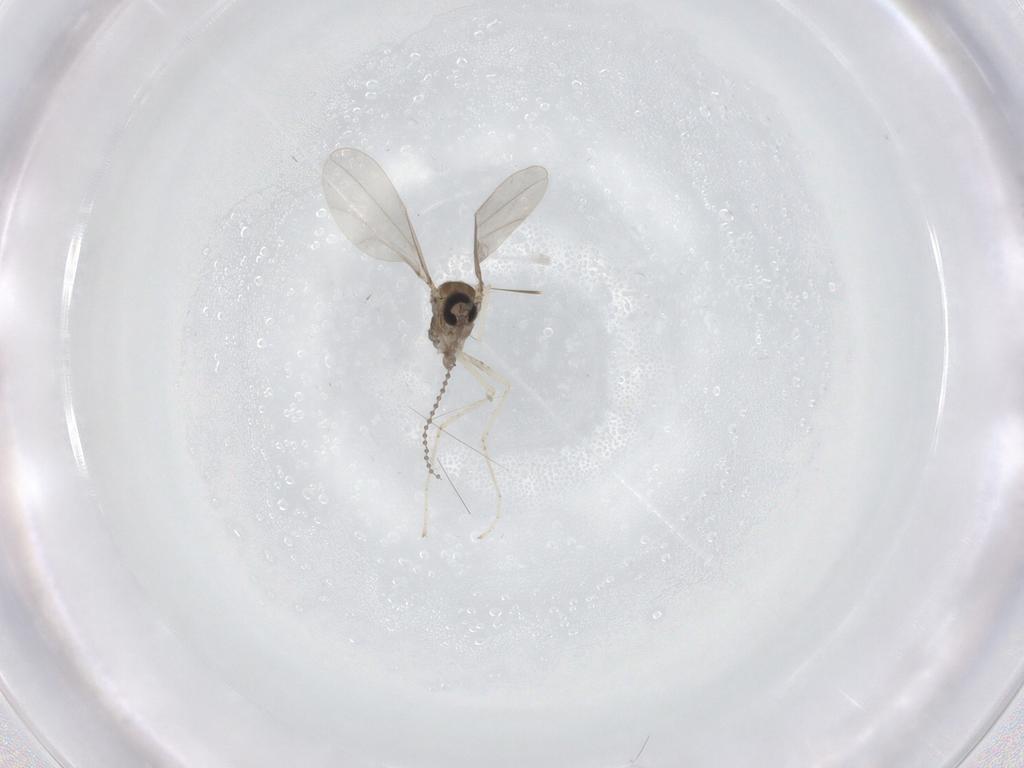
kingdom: Animalia
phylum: Arthropoda
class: Insecta
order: Diptera
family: Cecidomyiidae
